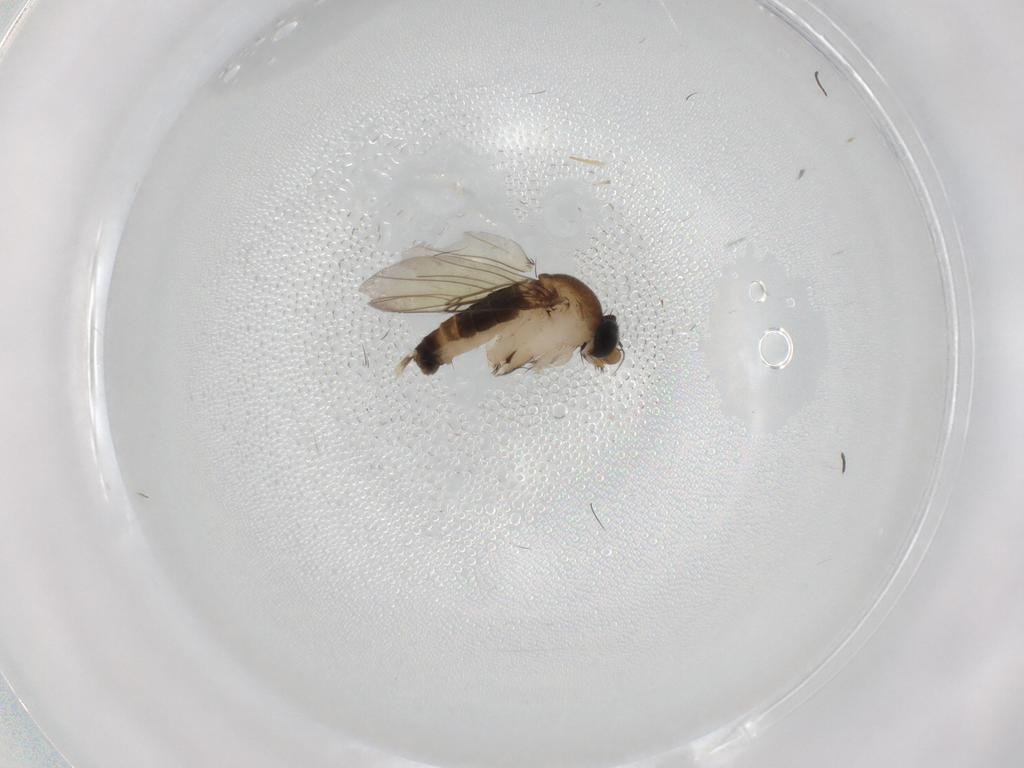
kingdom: Animalia
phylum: Arthropoda
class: Insecta
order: Diptera
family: Phoridae
